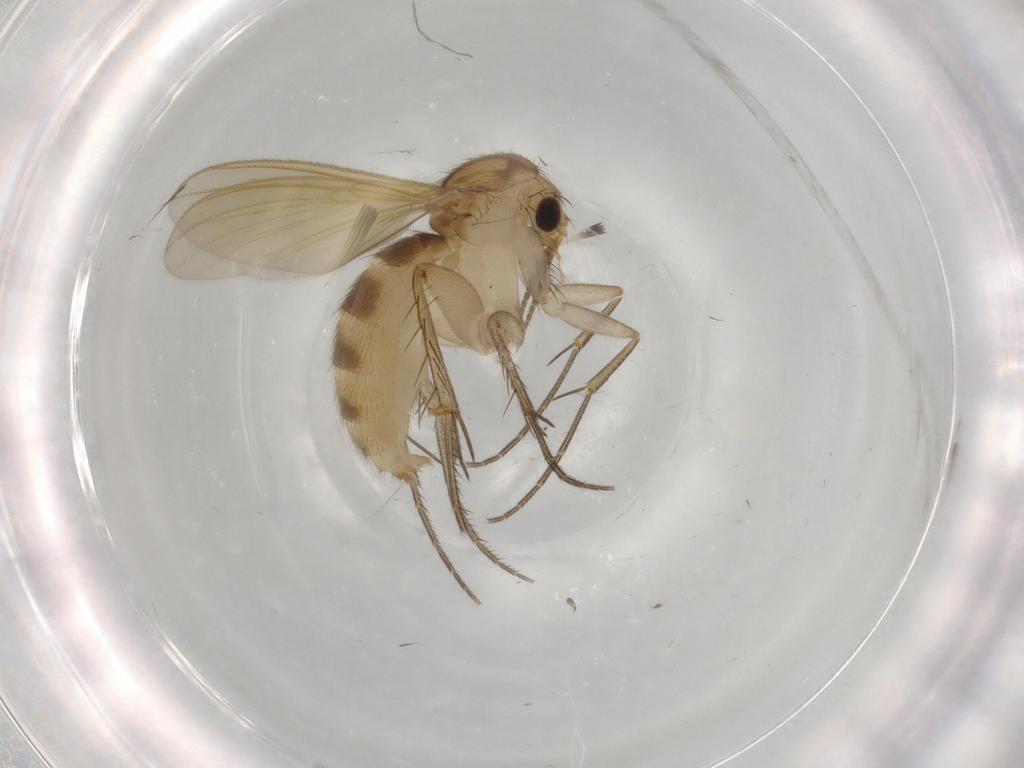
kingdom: Animalia
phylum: Arthropoda
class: Insecta
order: Diptera
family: Mycetophilidae
